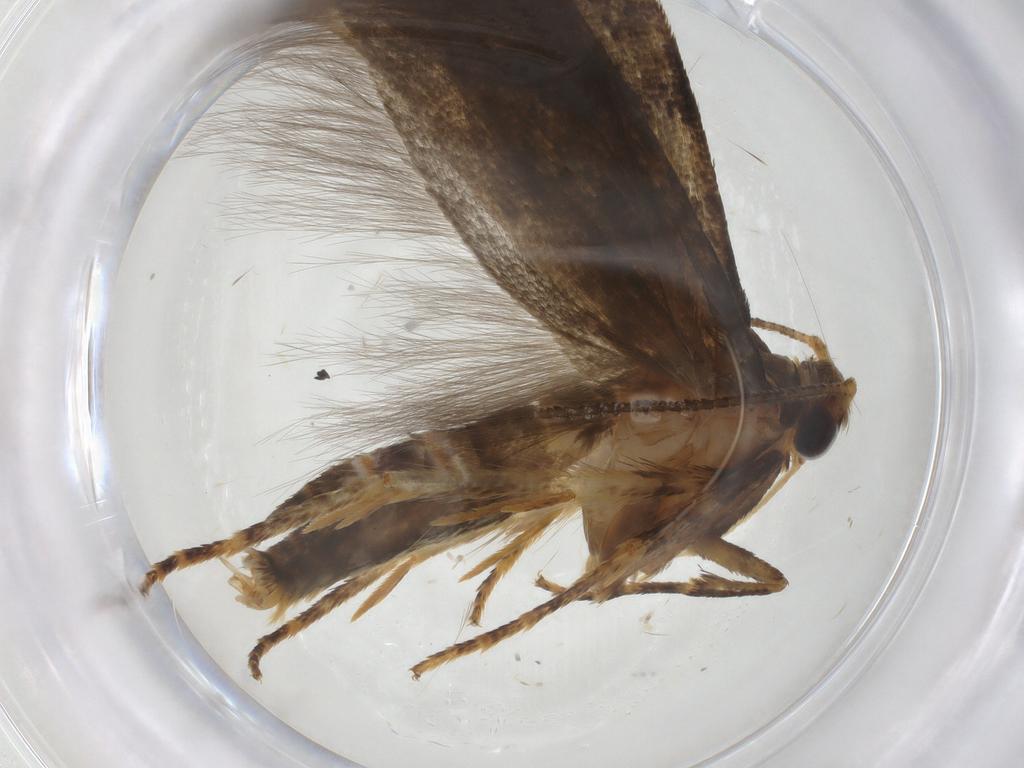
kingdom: Animalia
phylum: Arthropoda
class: Insecta
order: Lepidoptera
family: Blastobasidae
